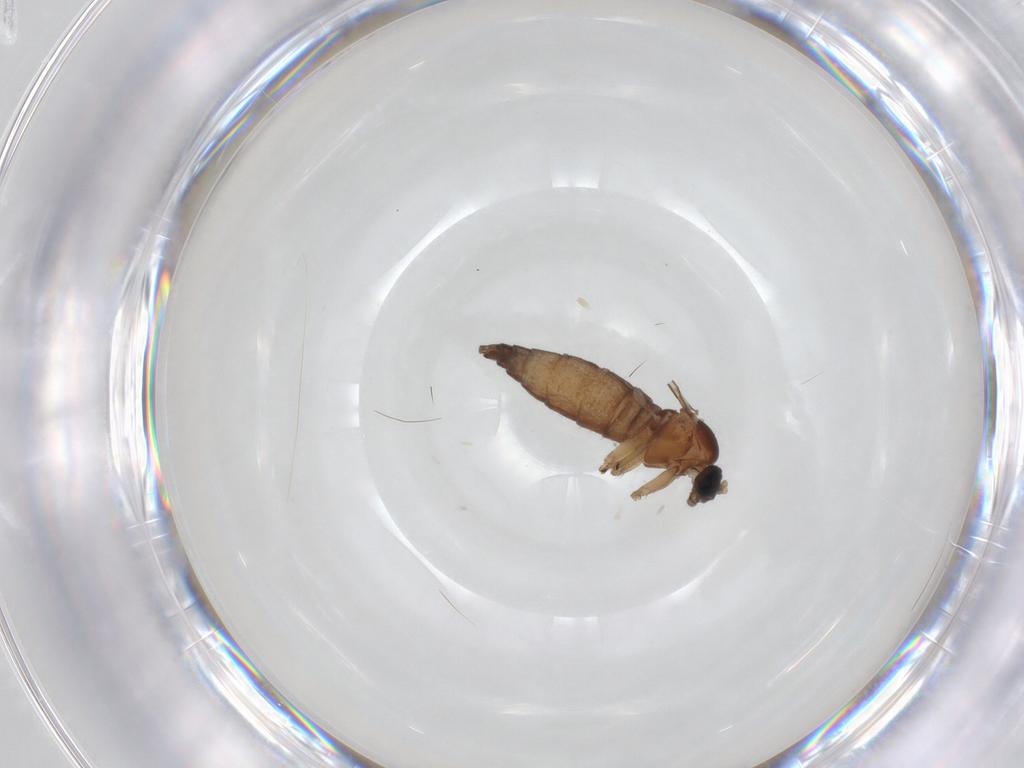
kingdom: Animalia
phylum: Arthropoda
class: Insecta
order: Diptera
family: Sciaridae
